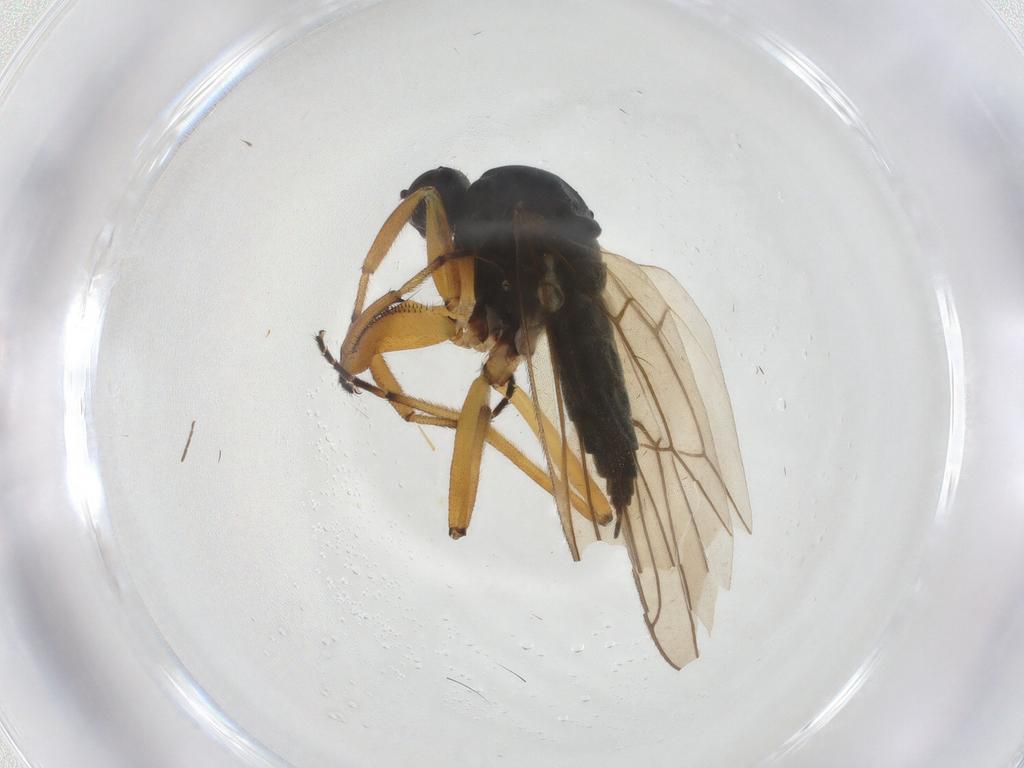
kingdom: Animalia
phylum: Arthropoda
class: Insecta
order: Diptera
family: Hybotidae
